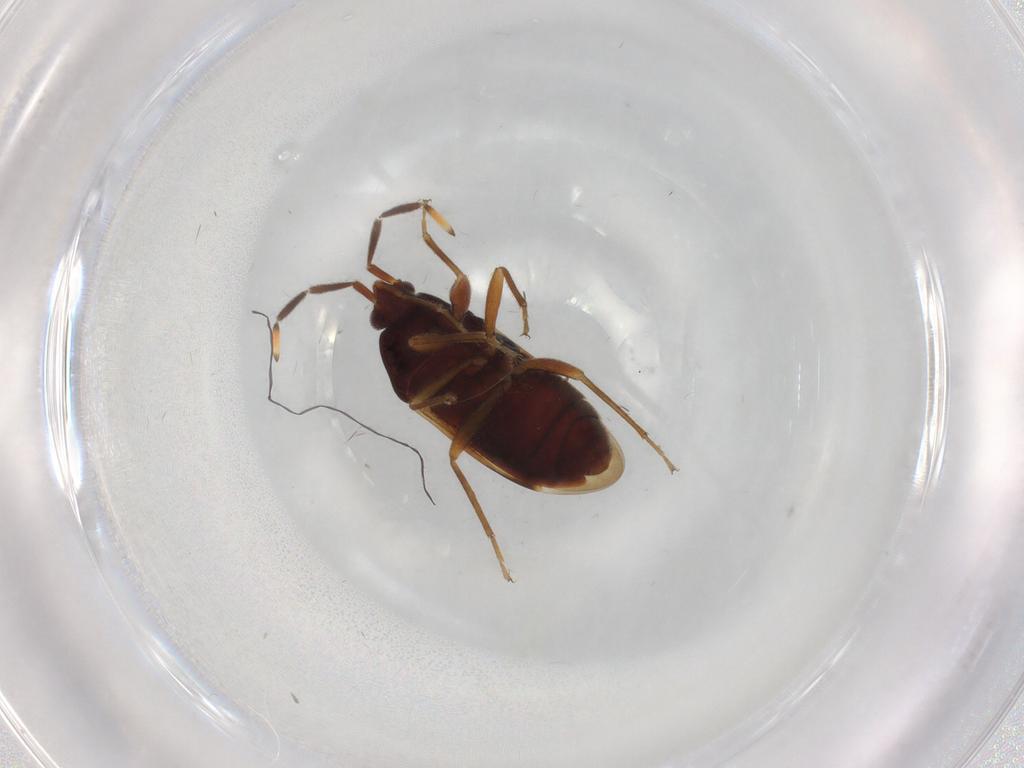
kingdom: Animalia
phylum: Arthropoda
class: Insecta
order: Hemiptera
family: Rhyparochromidae
